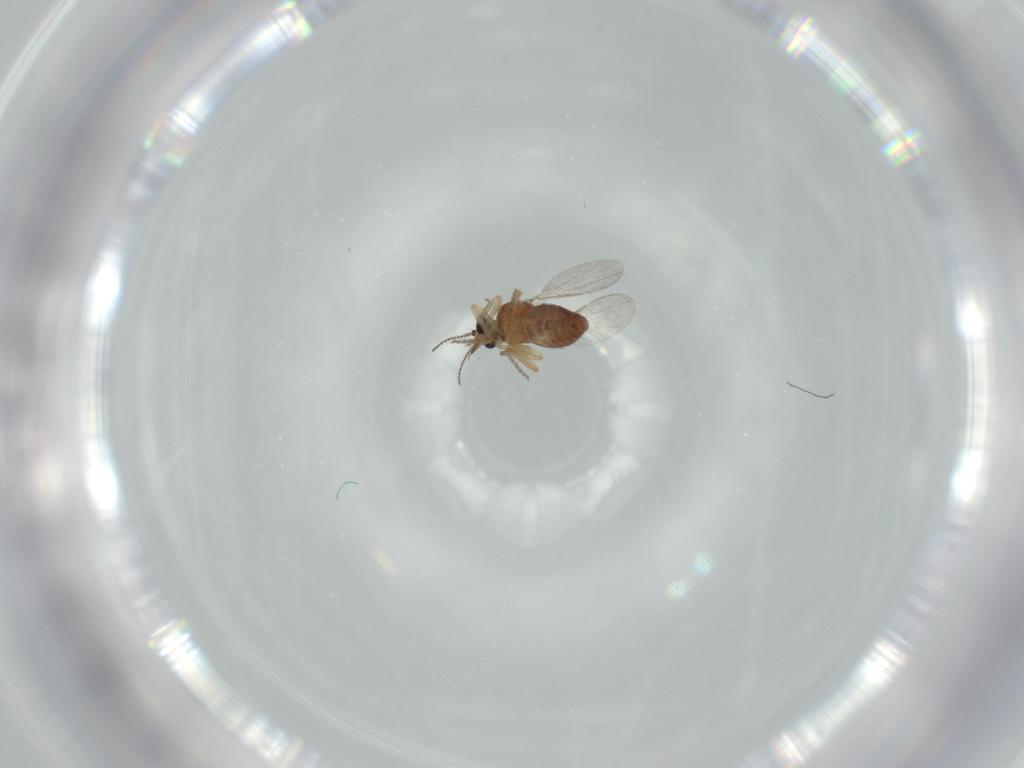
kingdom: Animalia
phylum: Arthropoda
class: Insecta
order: Diptera
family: Ceratopogonidae
